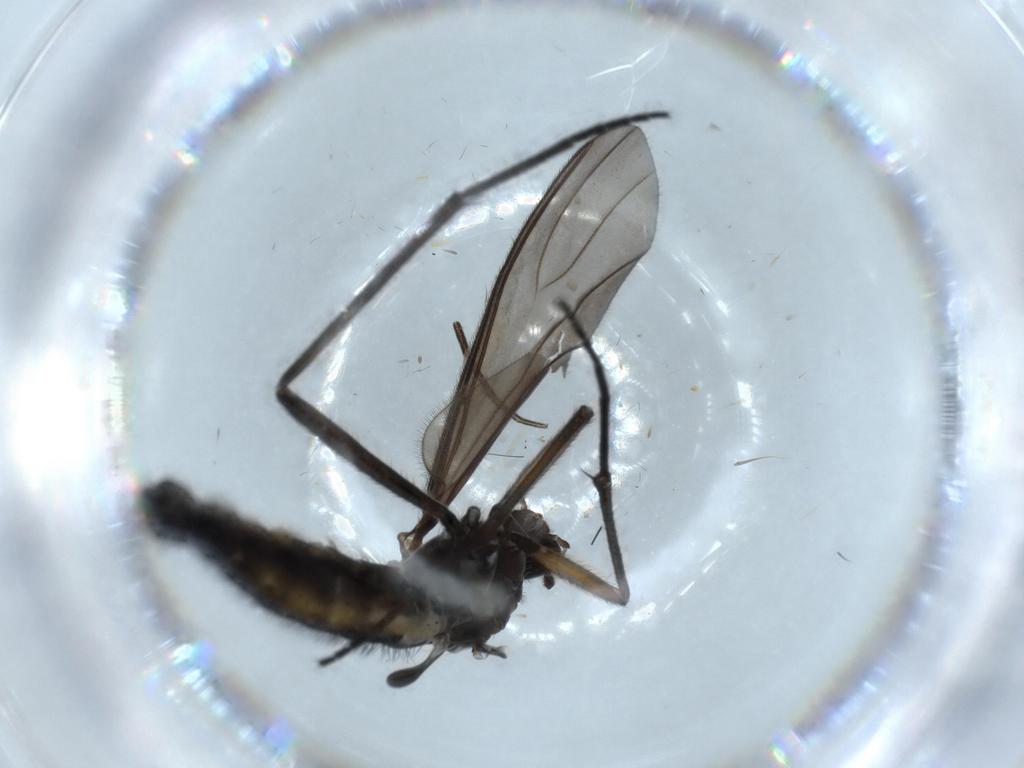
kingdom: Animalia
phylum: Arthropoda
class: Insecta
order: Diptera
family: Sciaridae
